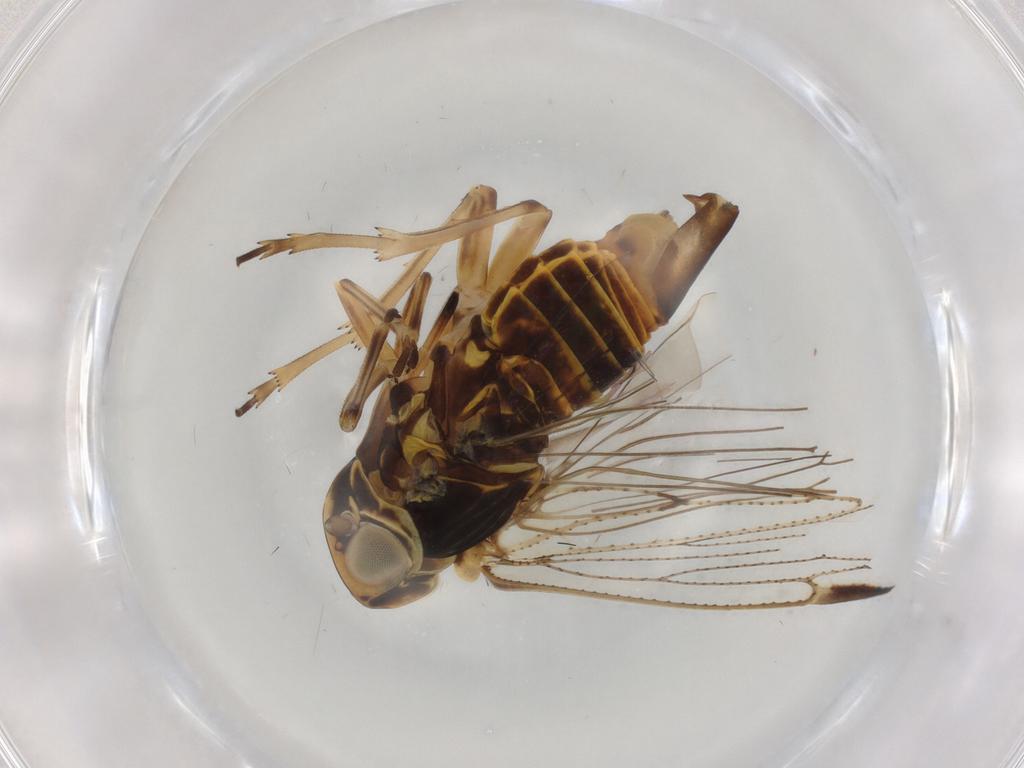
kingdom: Animalia
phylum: Arthropoda
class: Insecta
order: Hemiptera
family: Cixiidae
